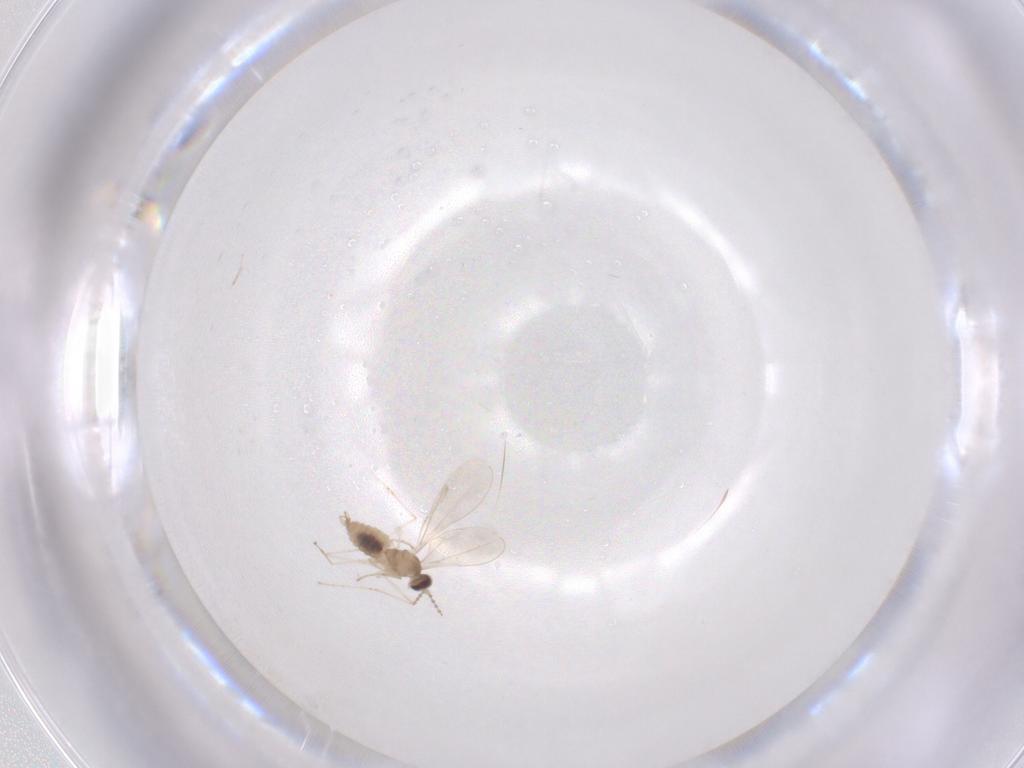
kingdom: Animalia
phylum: Arthropoda
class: Insecta
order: Diptera
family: Cecidomyiidae
